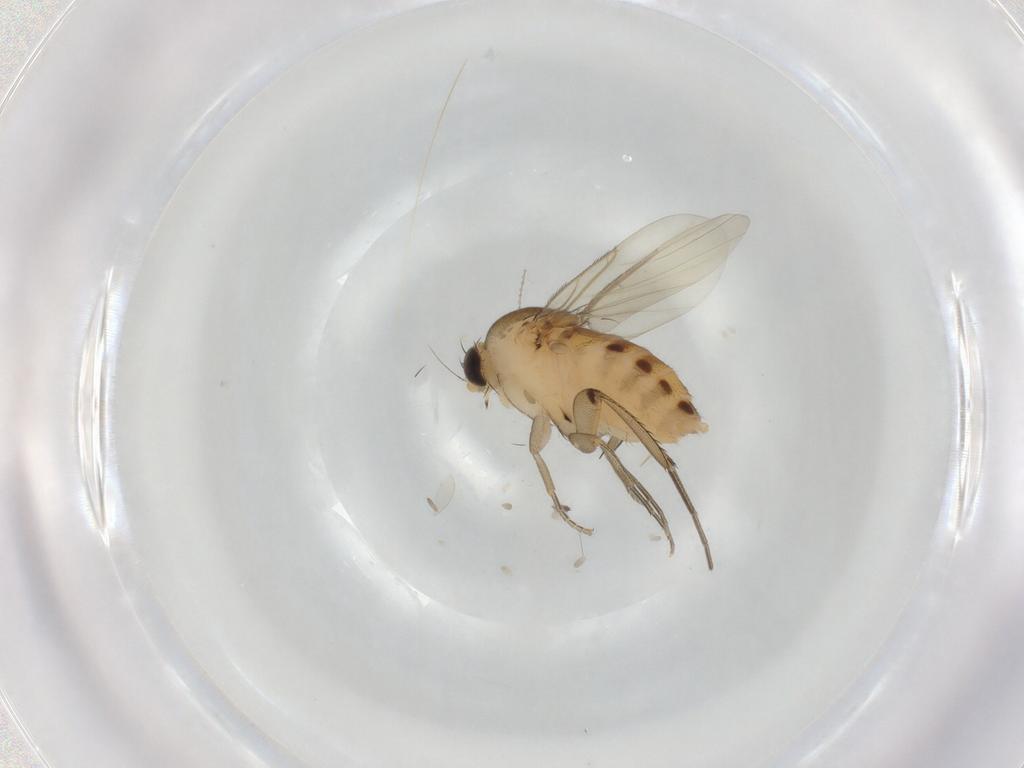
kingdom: Animalia
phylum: Arthropoda
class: Insecta
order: Diptera
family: Phoridae
